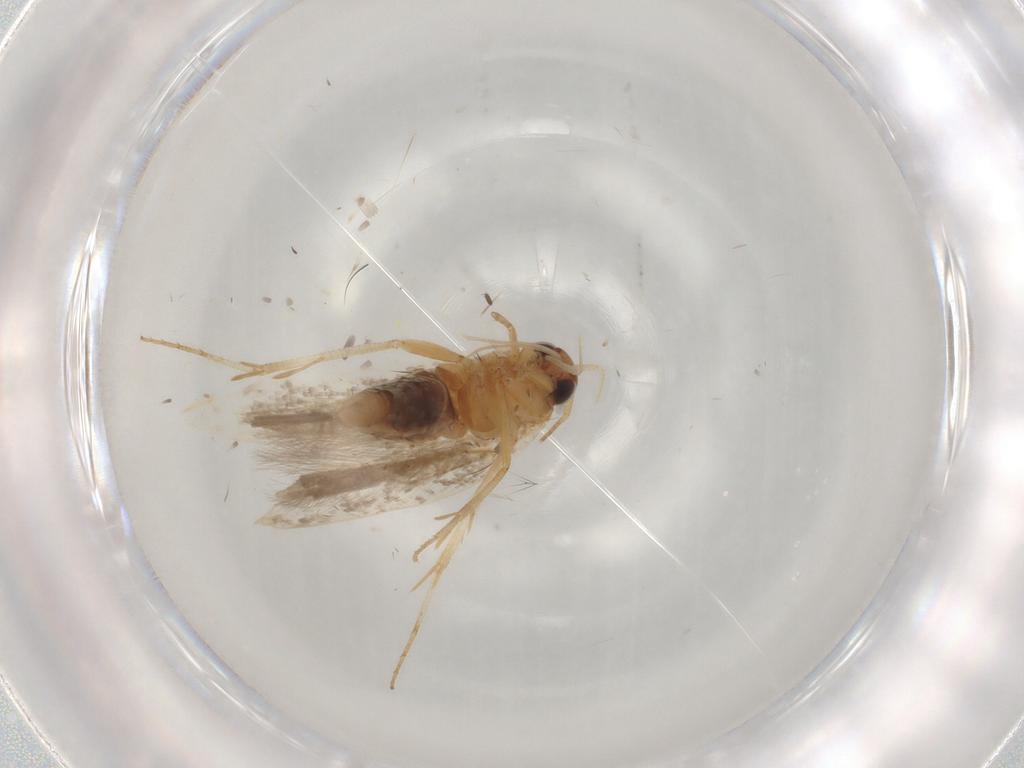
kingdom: Animalia
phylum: Arthropoda
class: Insecta
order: Lepidoptera
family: Gelechiidae
